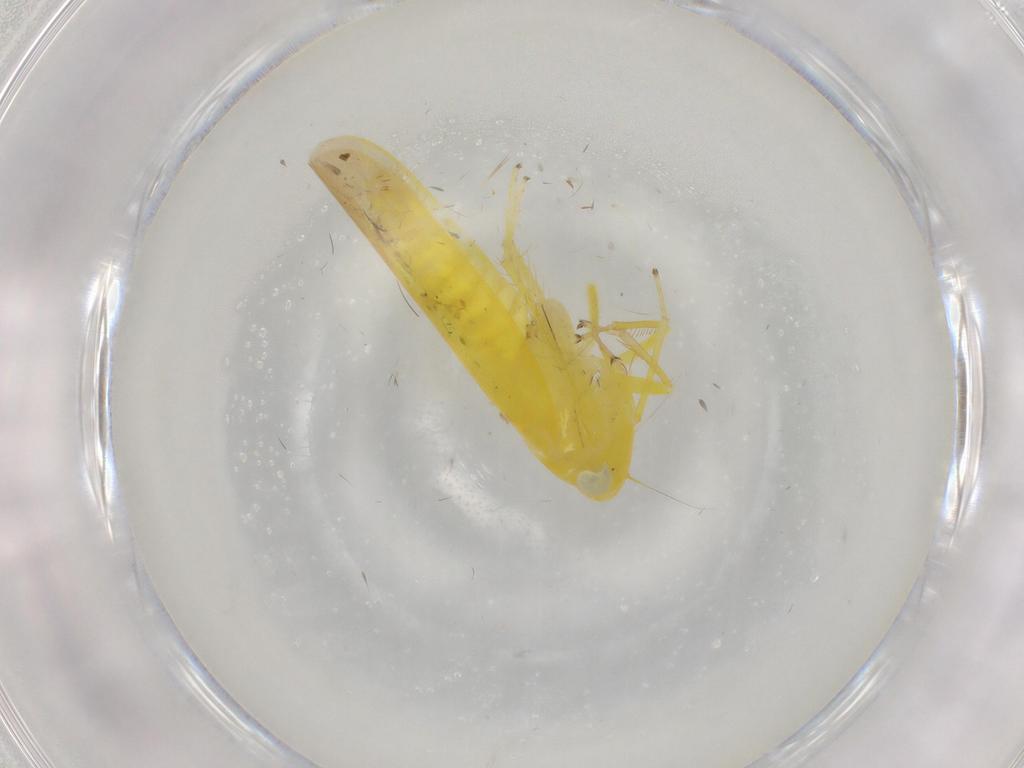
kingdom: Animalia
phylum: Arthropoda
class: Insecta
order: Hemiptera
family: Cicadellidae
